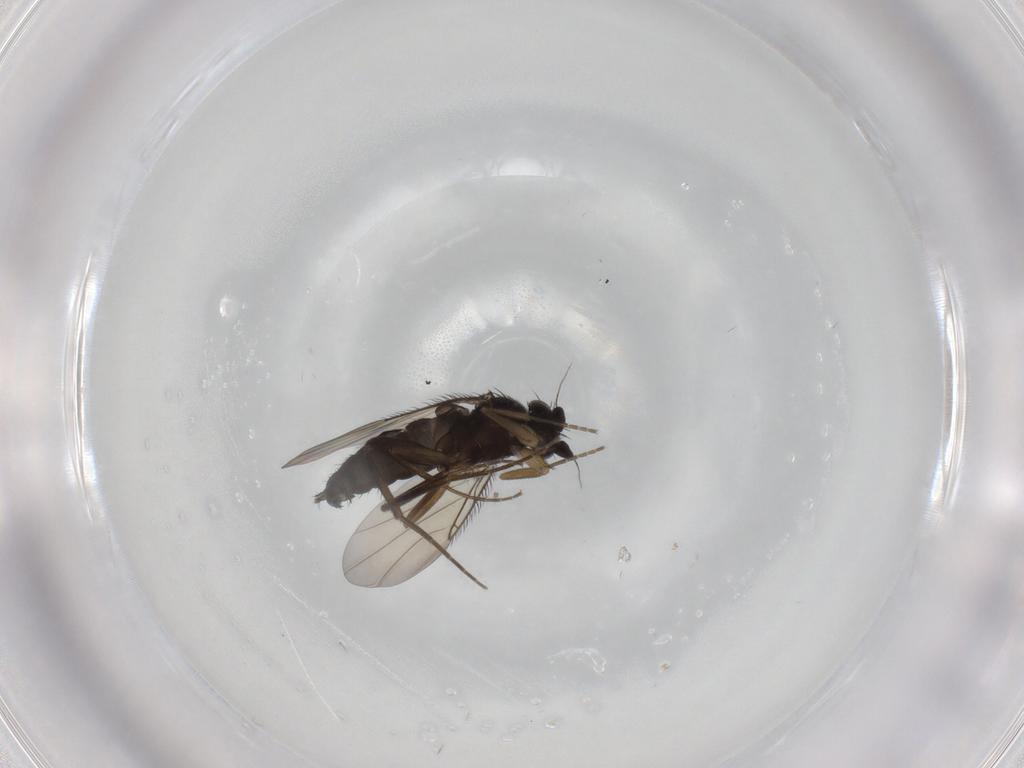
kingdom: Animalia
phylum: Arthropoda
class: Insecta
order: Diptera
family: Phoridae
